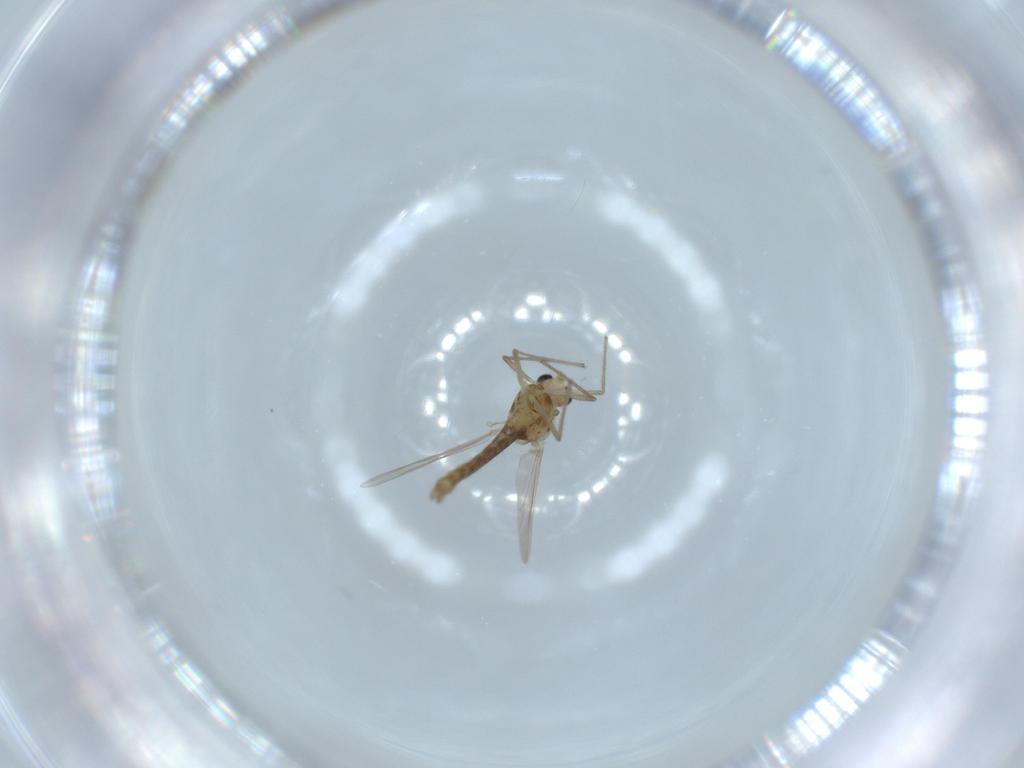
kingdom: Animalia
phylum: Arthropoda
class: Insecta
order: Diptera
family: Chironomidae
